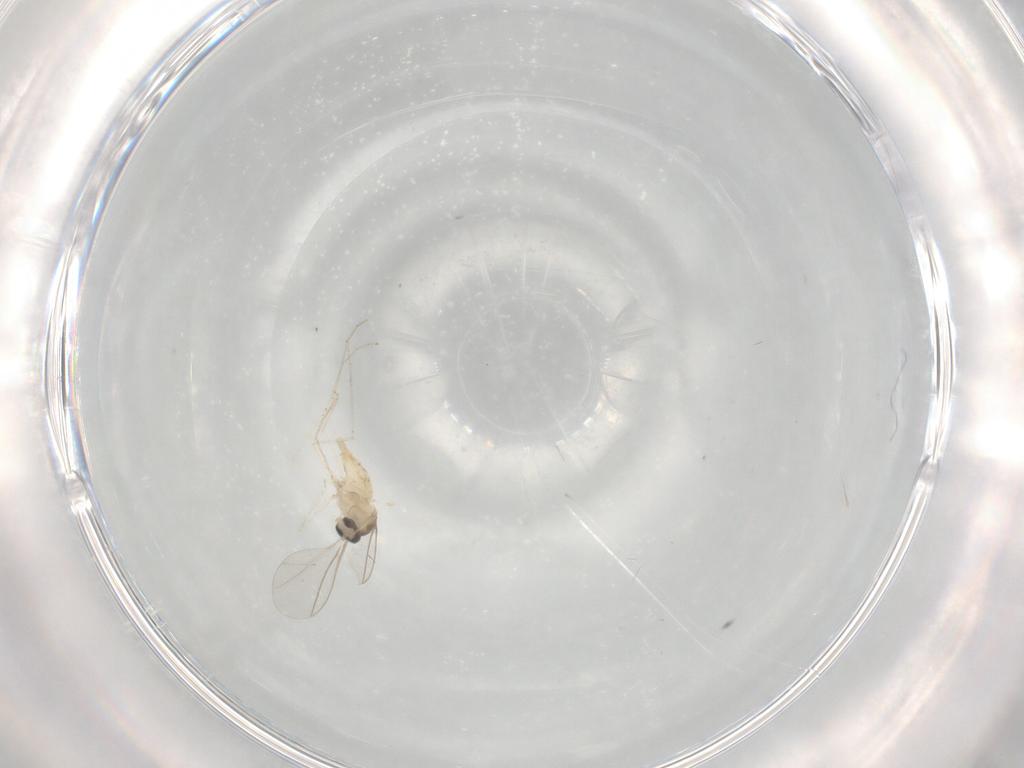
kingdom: Animalia
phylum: Arthropoda
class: Insecta
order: Diptera
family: Cecidomyiidae
